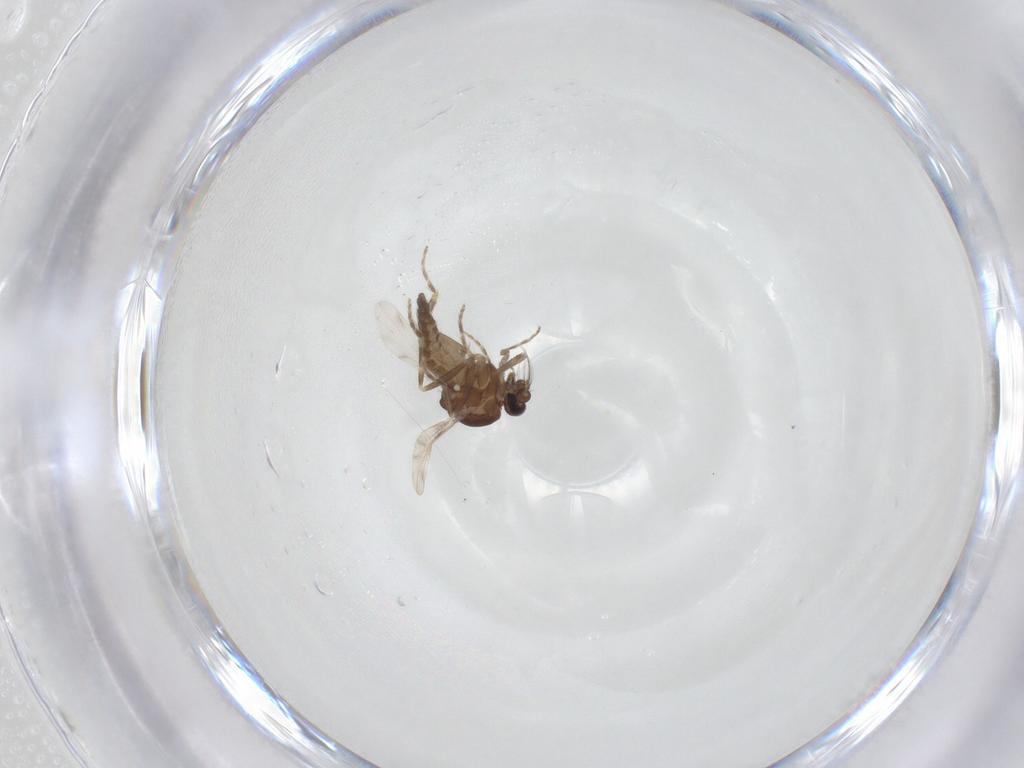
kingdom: Animalia
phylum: Arthropoda
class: Insecta
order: Diptera
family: Ceratopogonidae
